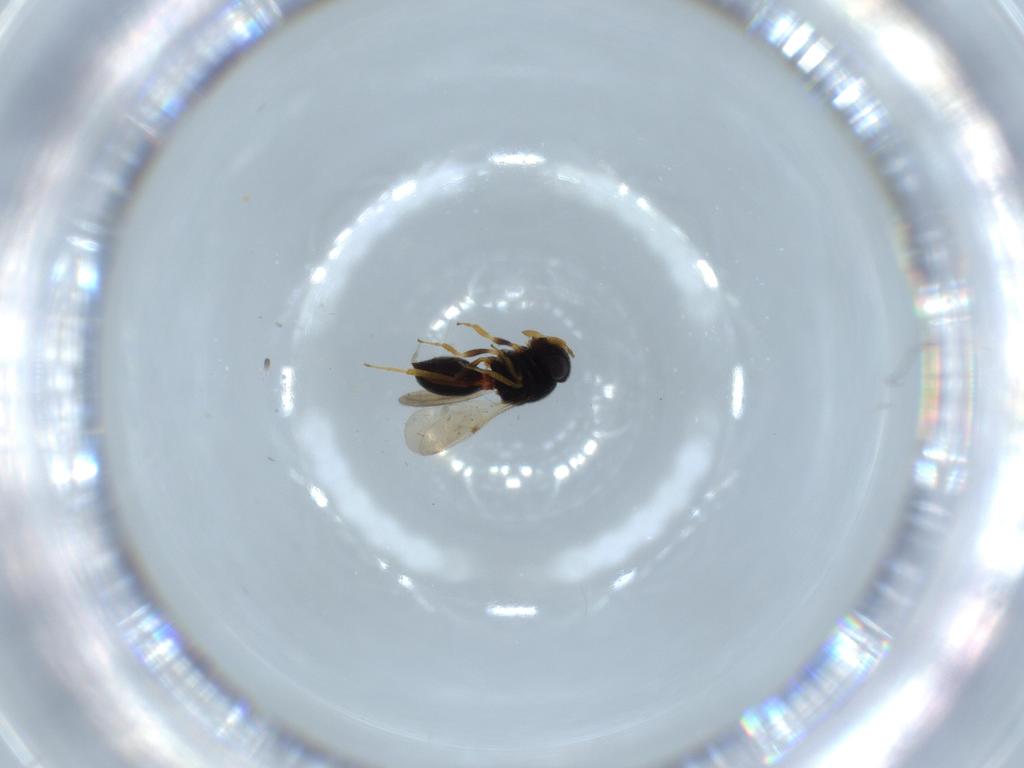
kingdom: Animalia
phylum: Arthropoda
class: Insecta
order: Hymenoptera
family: Scelionidae
